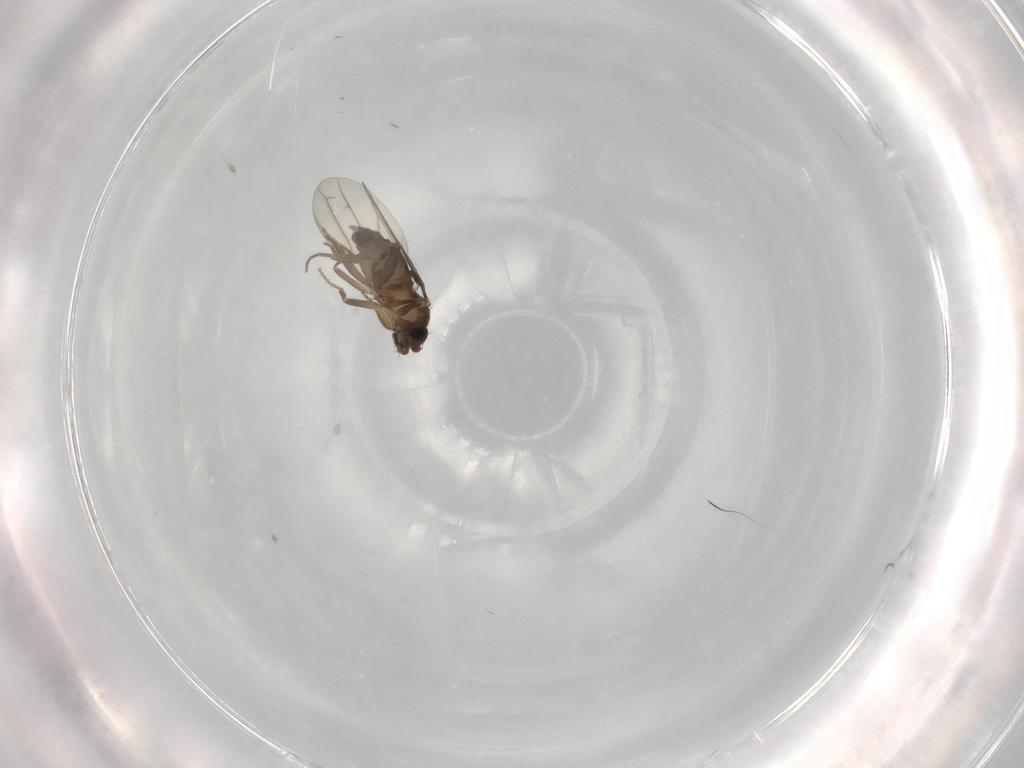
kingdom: Animalia
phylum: Arthropoda
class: Insecta
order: Diptera
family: Phoridae
